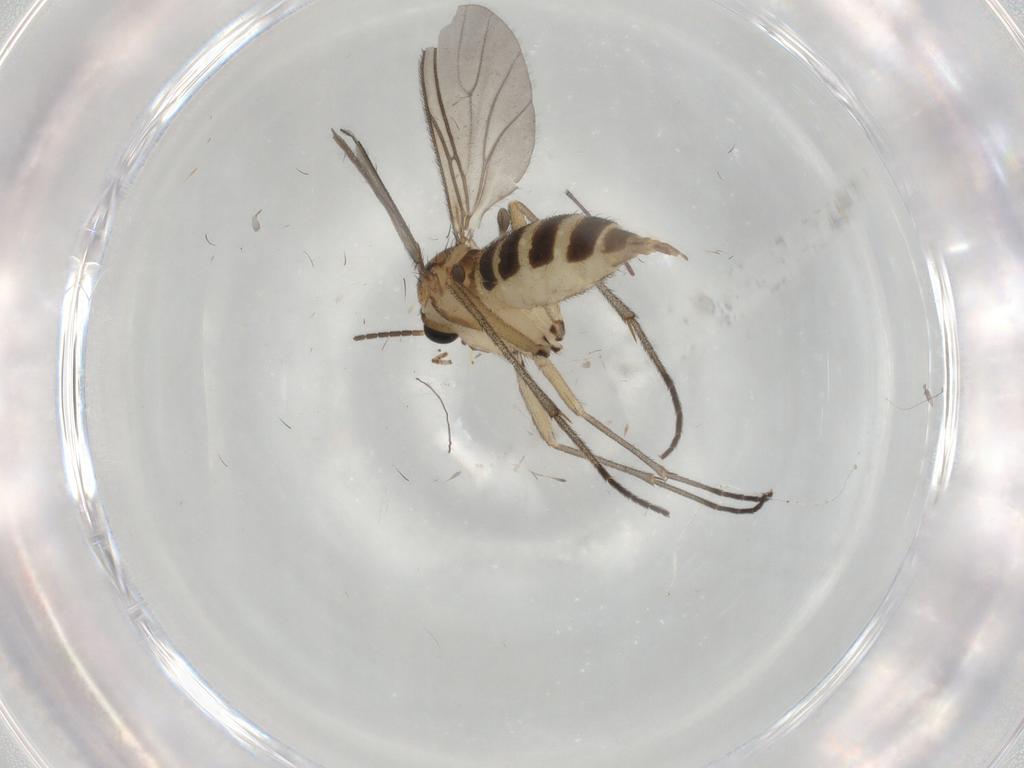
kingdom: Animalia
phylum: Arthropoda
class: Insecta
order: Diptera
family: Sciaridae
